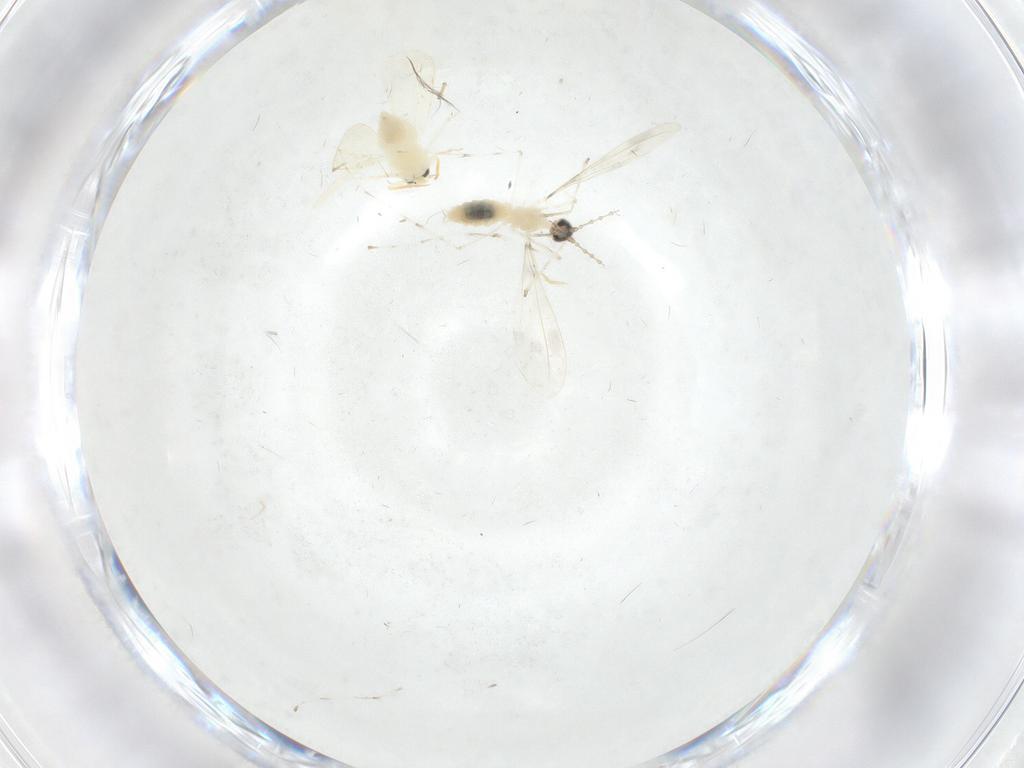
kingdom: Animalia
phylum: Arthropoda
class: Insecta
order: Hemiptera
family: Aleyrodidae
